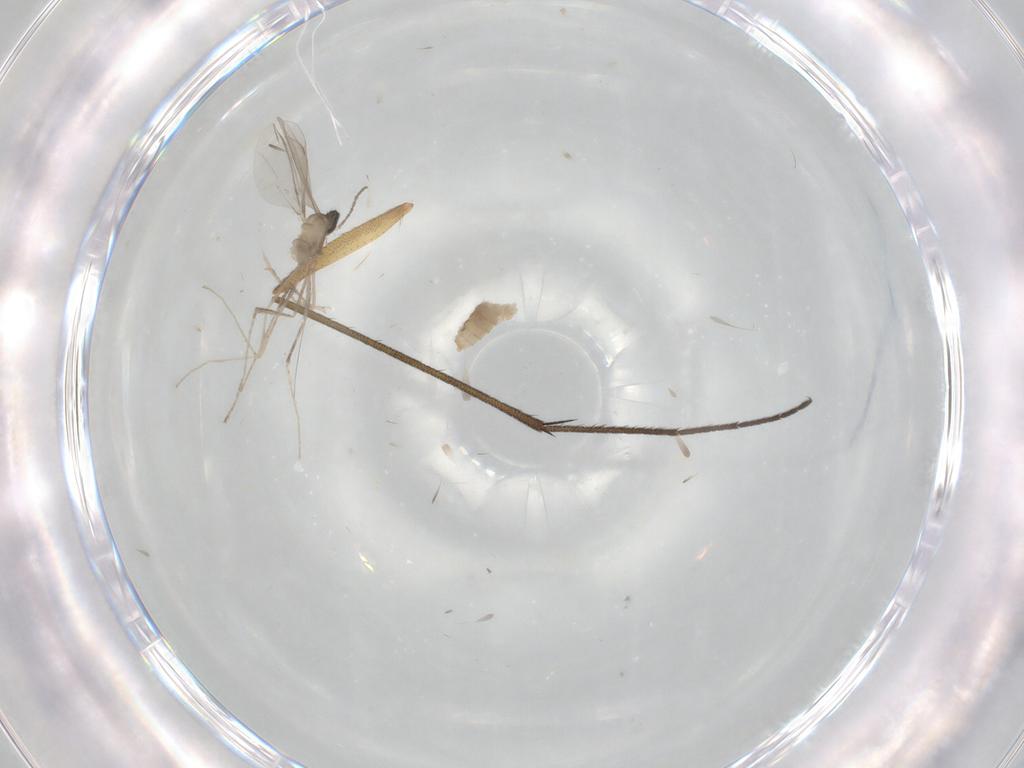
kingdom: Animalia
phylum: Arthropoda
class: Insecta
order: Diptera
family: Ditomyiidae
